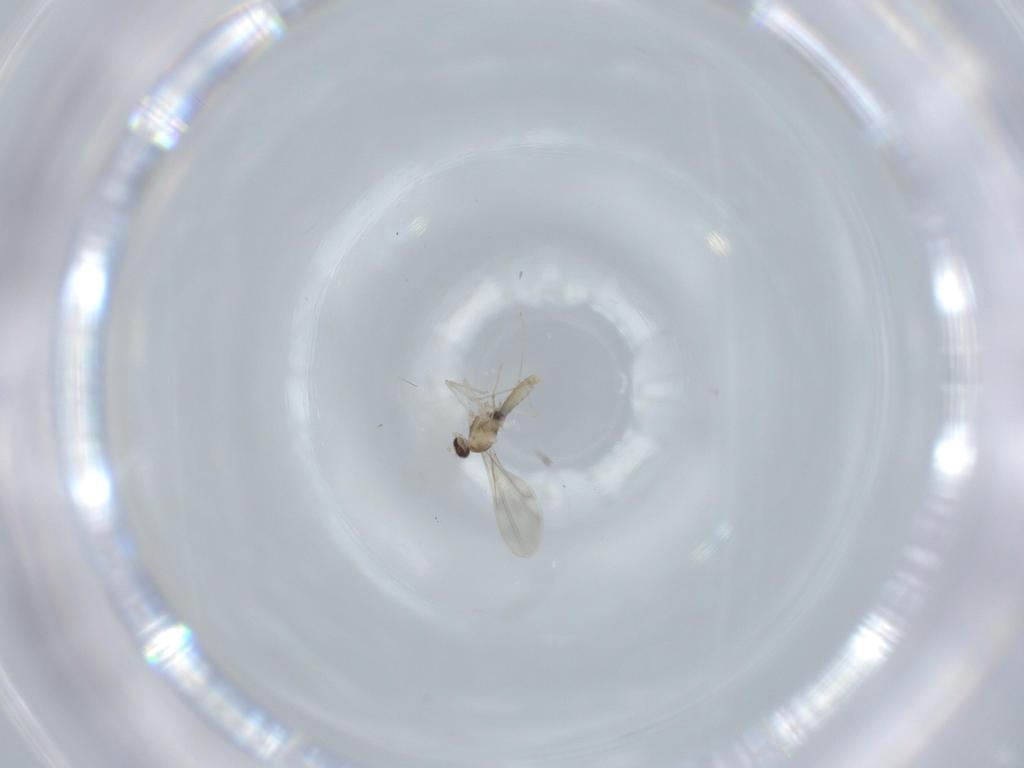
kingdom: Animalia
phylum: Arthropoda
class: Insecta
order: Diptera
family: Cecidomyiidae
